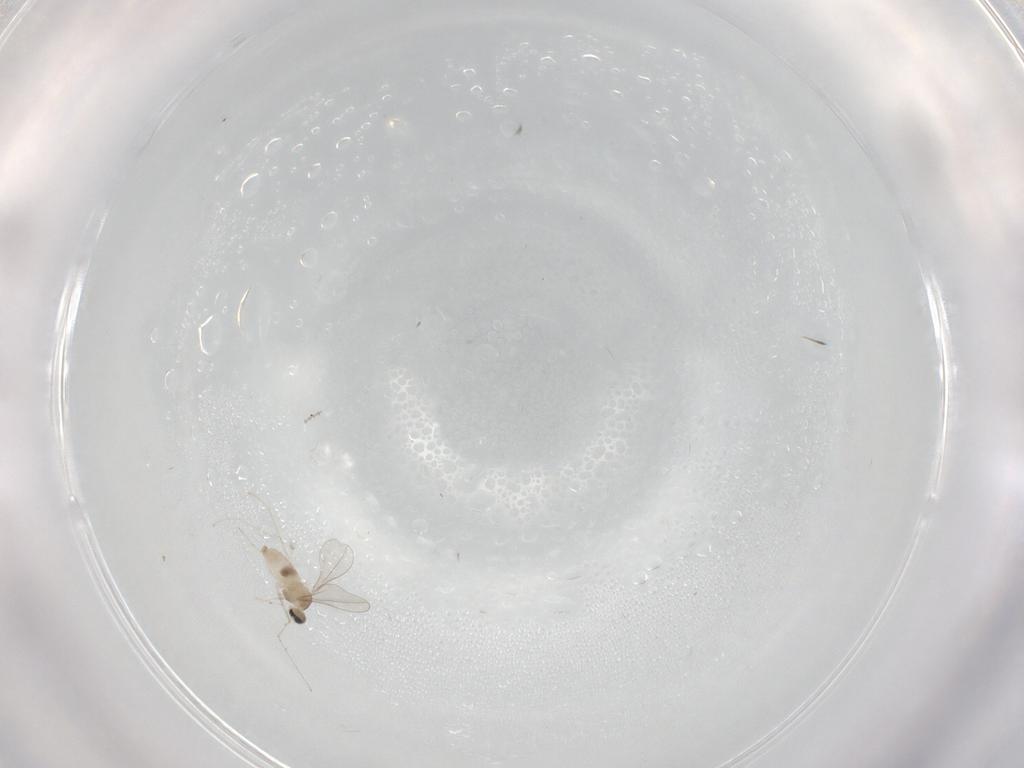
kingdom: Animalia
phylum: Arthropoda
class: Insecta
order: Diptera
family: Cecidomyiidae
